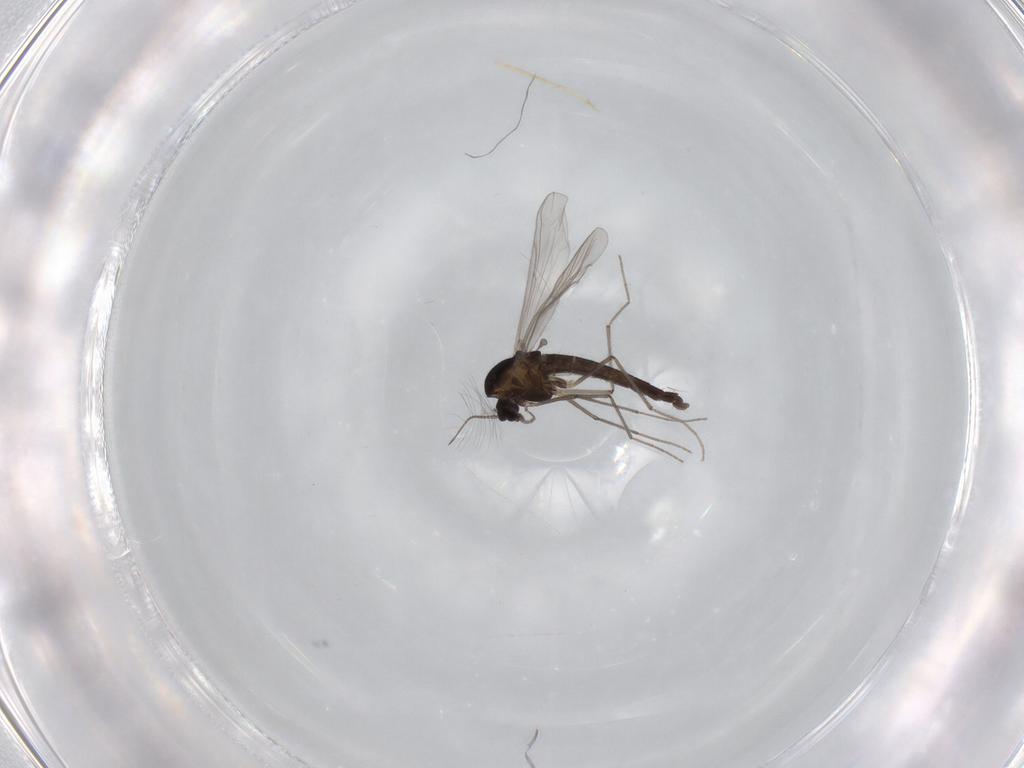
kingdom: Animalia
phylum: Arthropoda
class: Insecta
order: Diptera
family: Chironomidae
